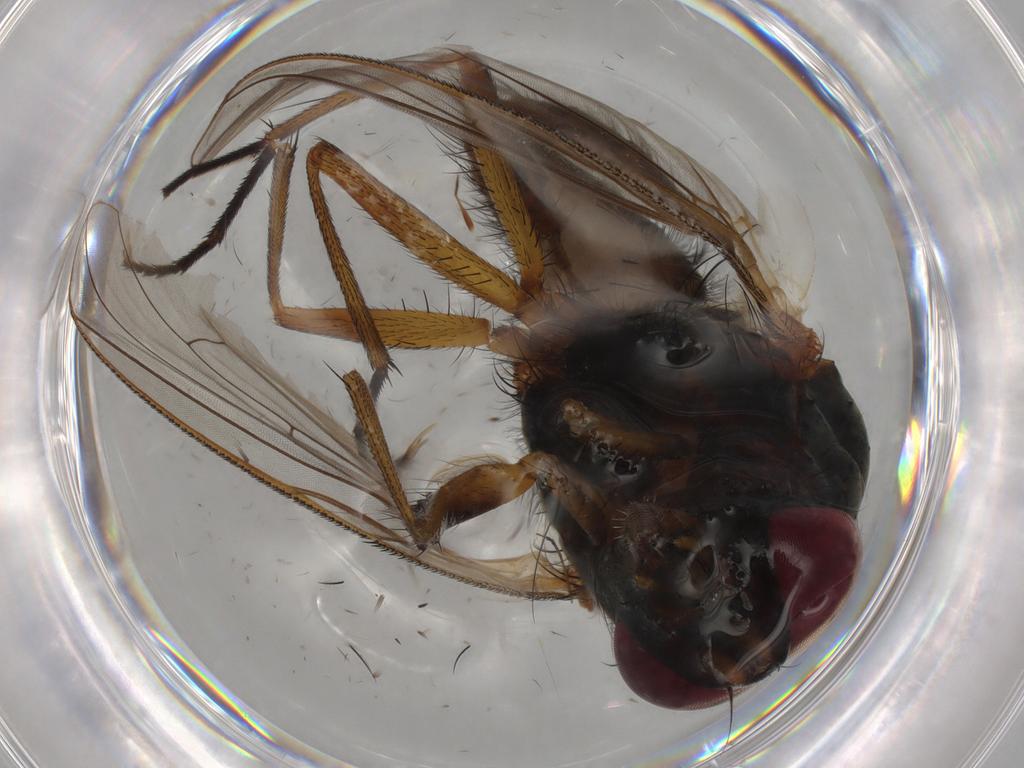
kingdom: Animalia
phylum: Arthropoda
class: Insecta
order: Diptera
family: Anthomyiidae
